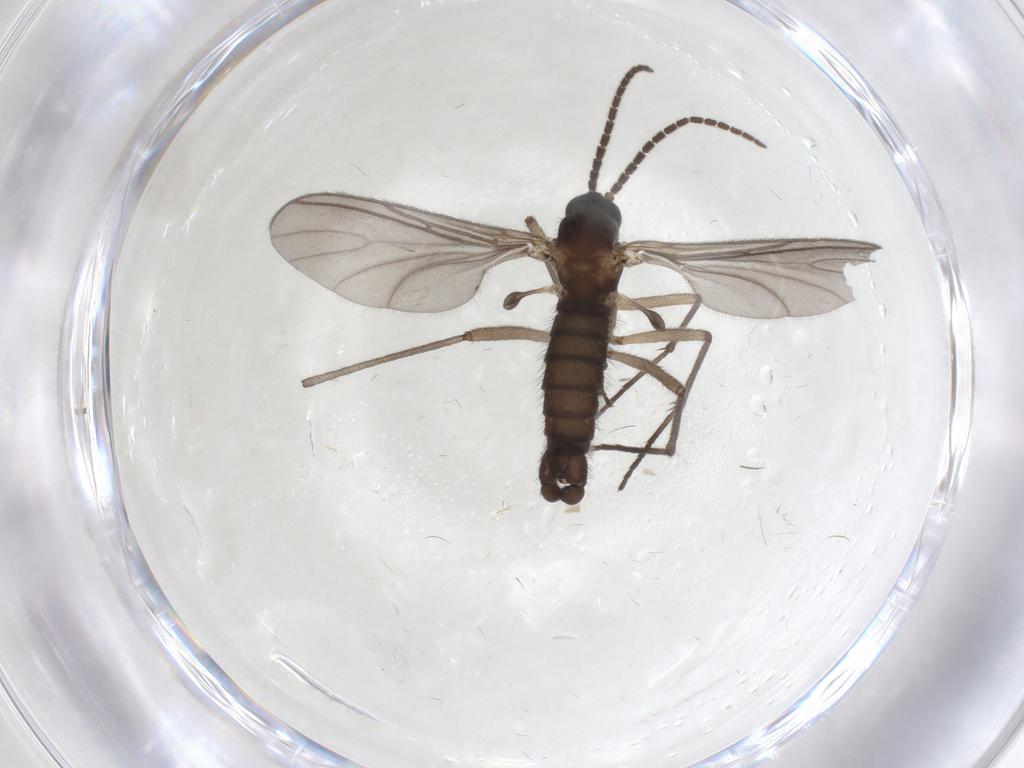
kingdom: Animalia
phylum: Arthropoda
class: Insecta
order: Diptera
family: Sciaridae
